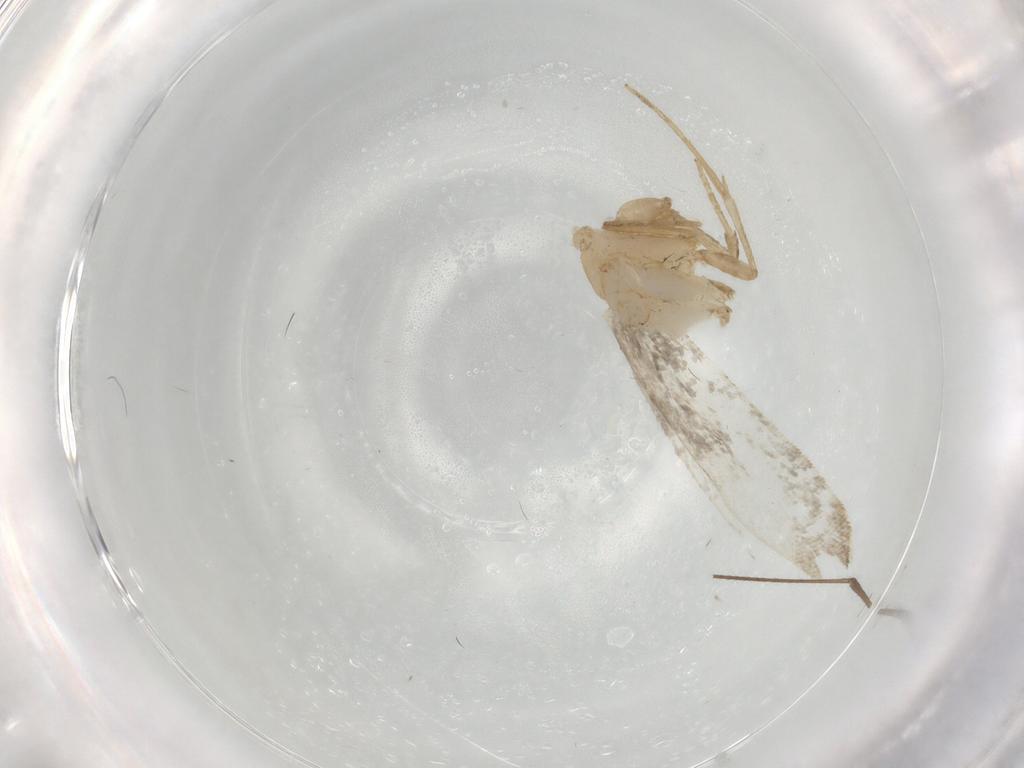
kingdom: Animalia
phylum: Arthropoda
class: Insecta
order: Lepidoptera
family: Tineidae
